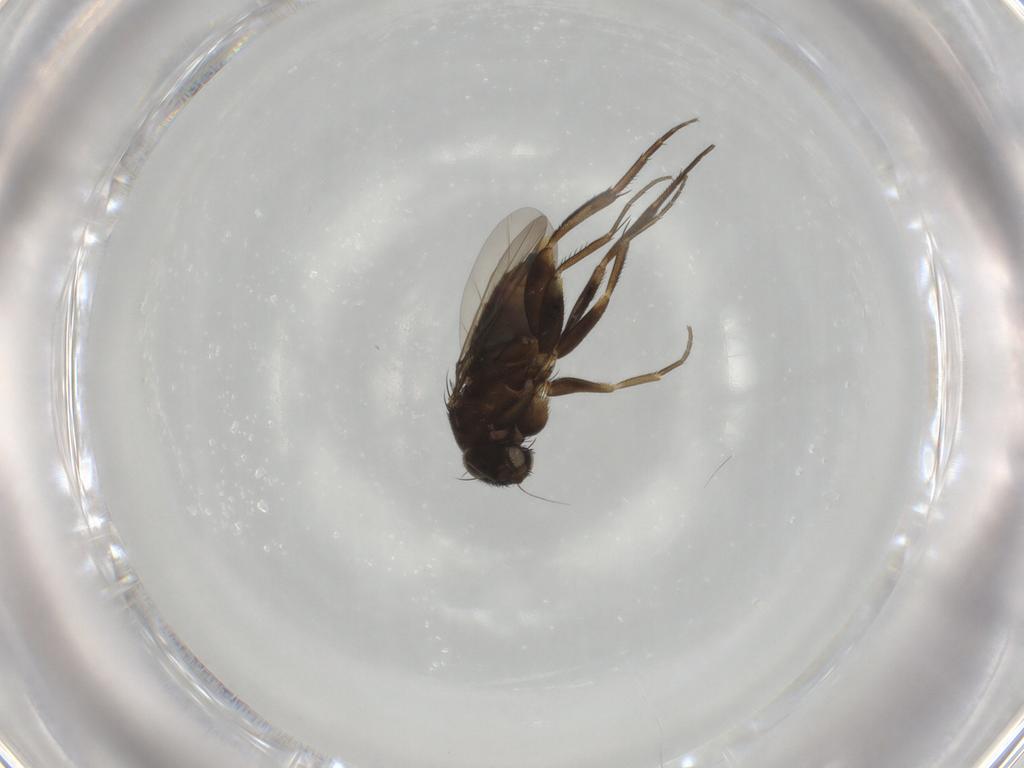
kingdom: Animalia
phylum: Arthropoda
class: Insecta
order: Diptera
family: Phoridae
